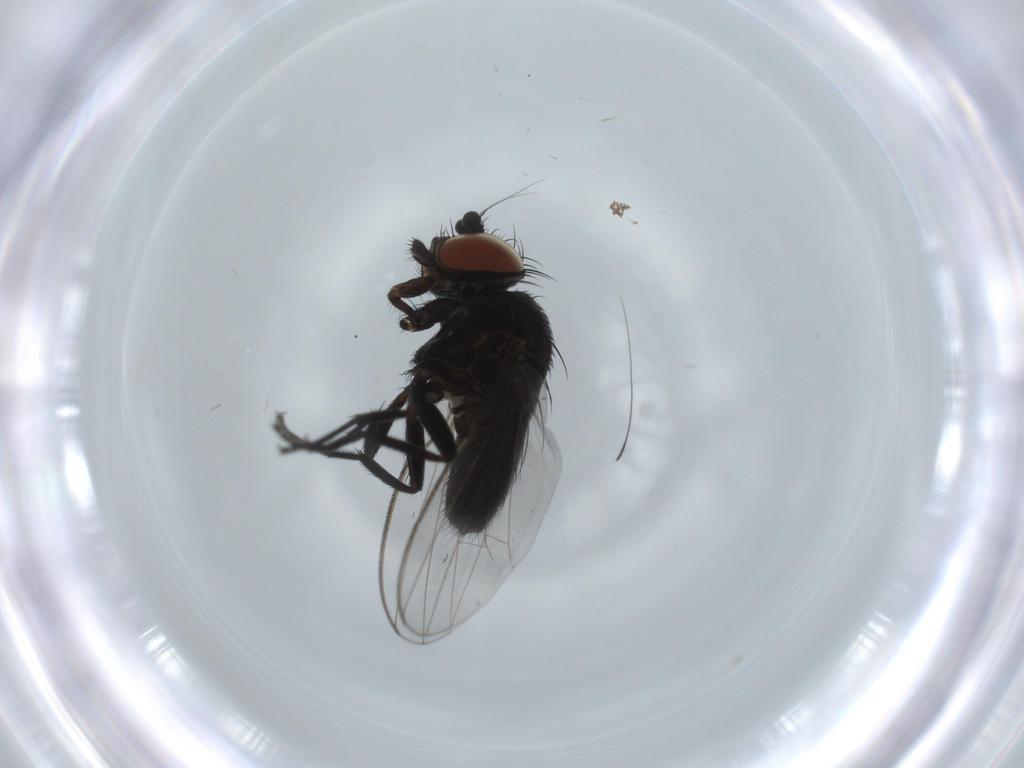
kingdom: Animalia
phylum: Arthropoda
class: Insecta
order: Diptera
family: Milichiidae
